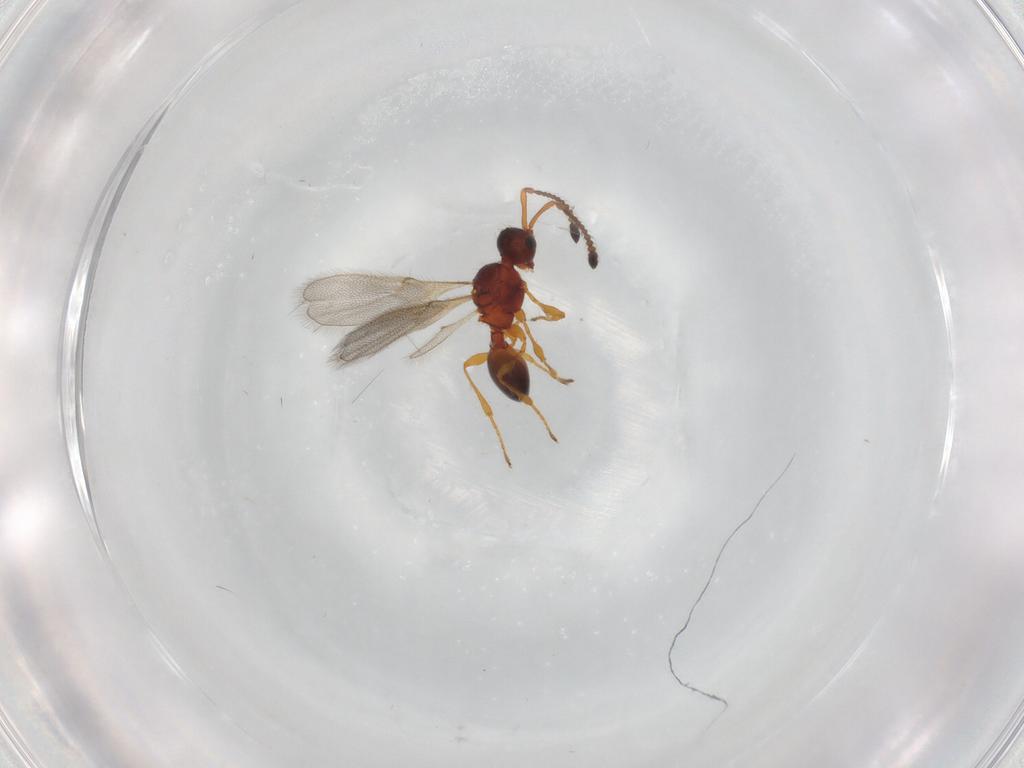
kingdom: Animalia
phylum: Arthropoda
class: Insecta
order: Hymenoptera
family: Diapriidae
